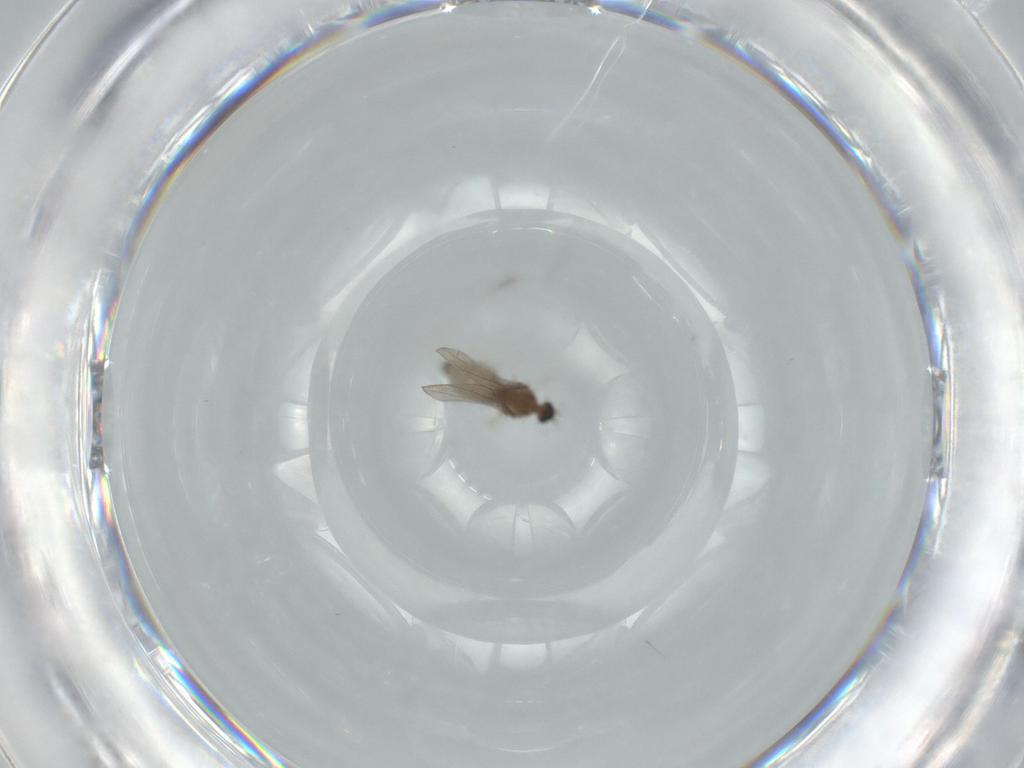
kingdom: Animalia
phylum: Arthropoda
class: Insecta
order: Diptera
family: Cecidomyiidae
